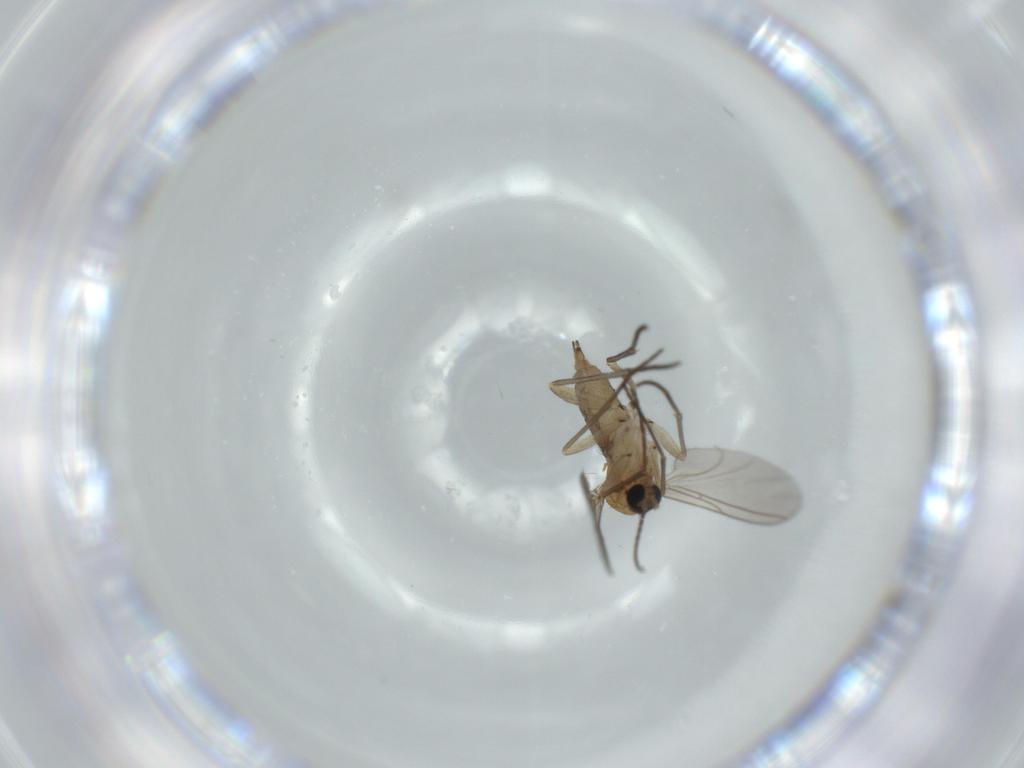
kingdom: Animalia
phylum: Arthropoda
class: Insecta
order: Diptera
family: Sciaridae
